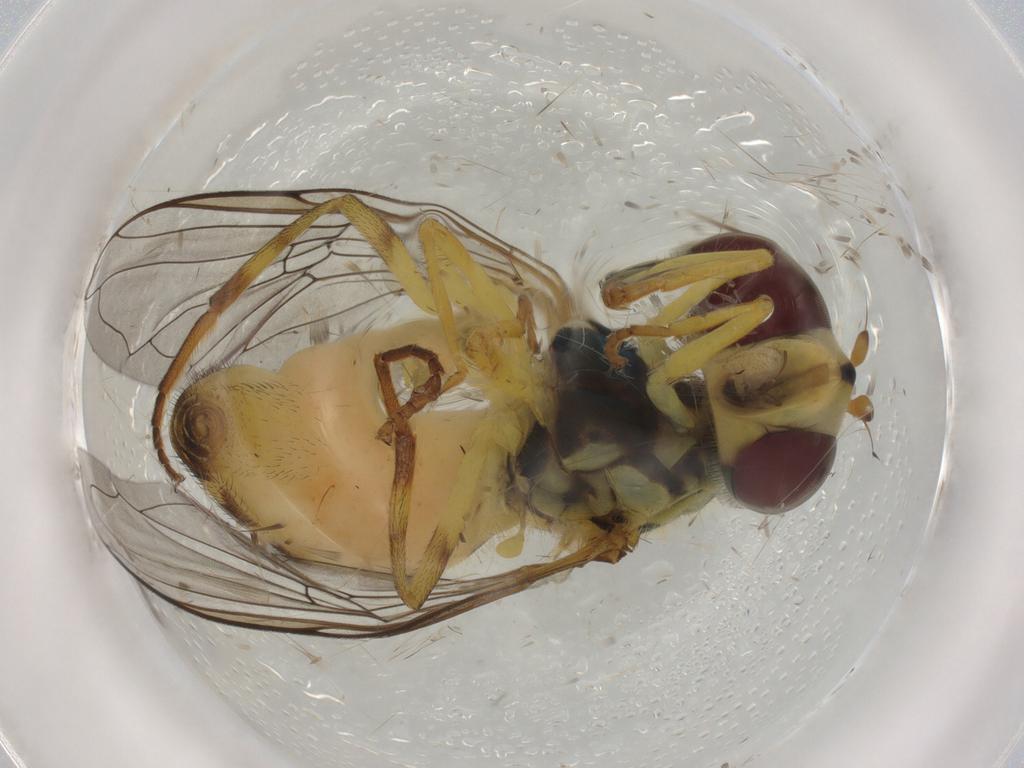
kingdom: Animalia
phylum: Arthropoda
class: Insecta
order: Diptera
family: Syrphidae
